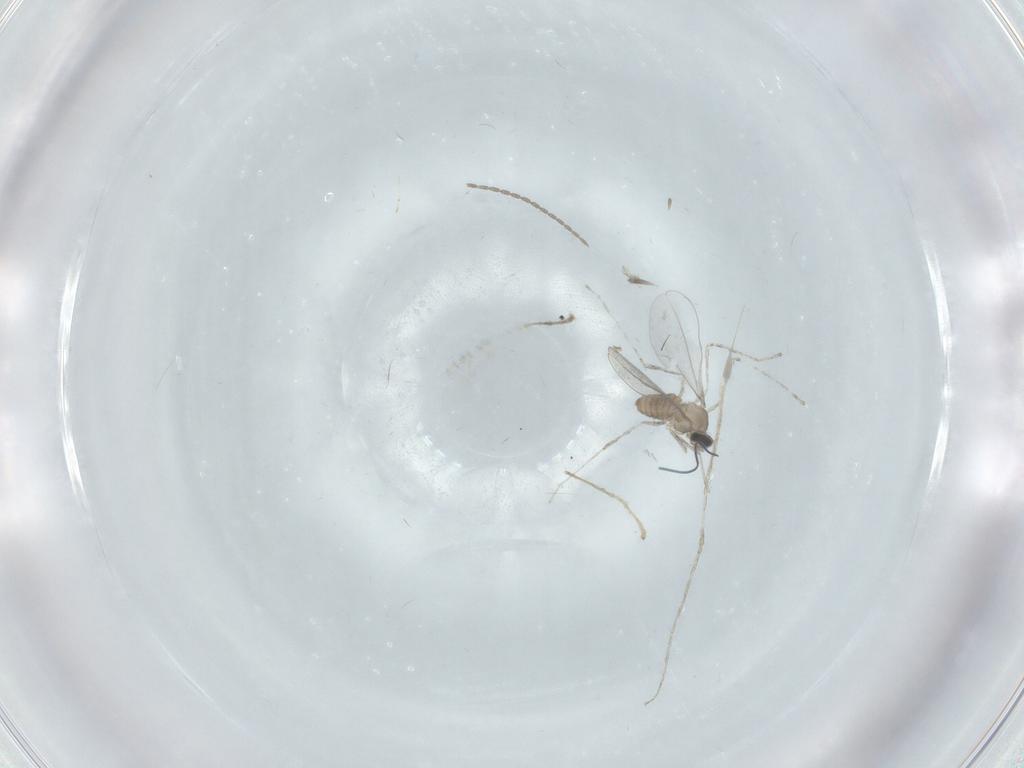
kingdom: Animalia
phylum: Arthropoda
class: Insecta
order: Diptera
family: Cecidomyiidae
